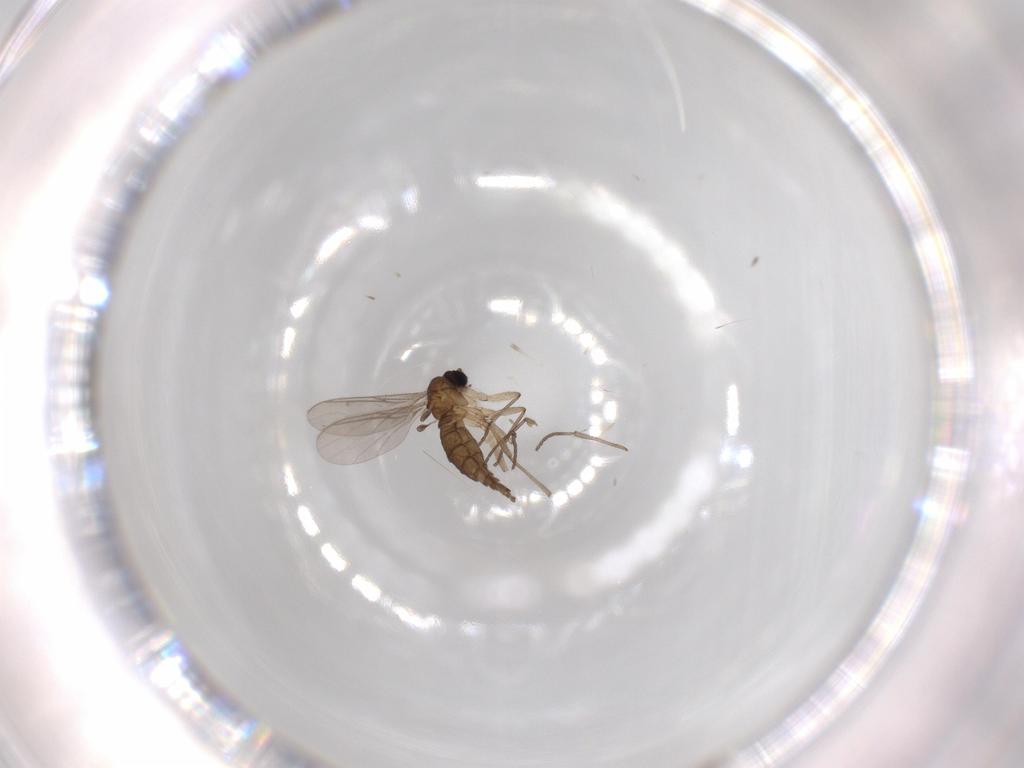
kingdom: Animalia
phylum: Arthropoda
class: Insecta
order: Diptera
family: Sciaridae
